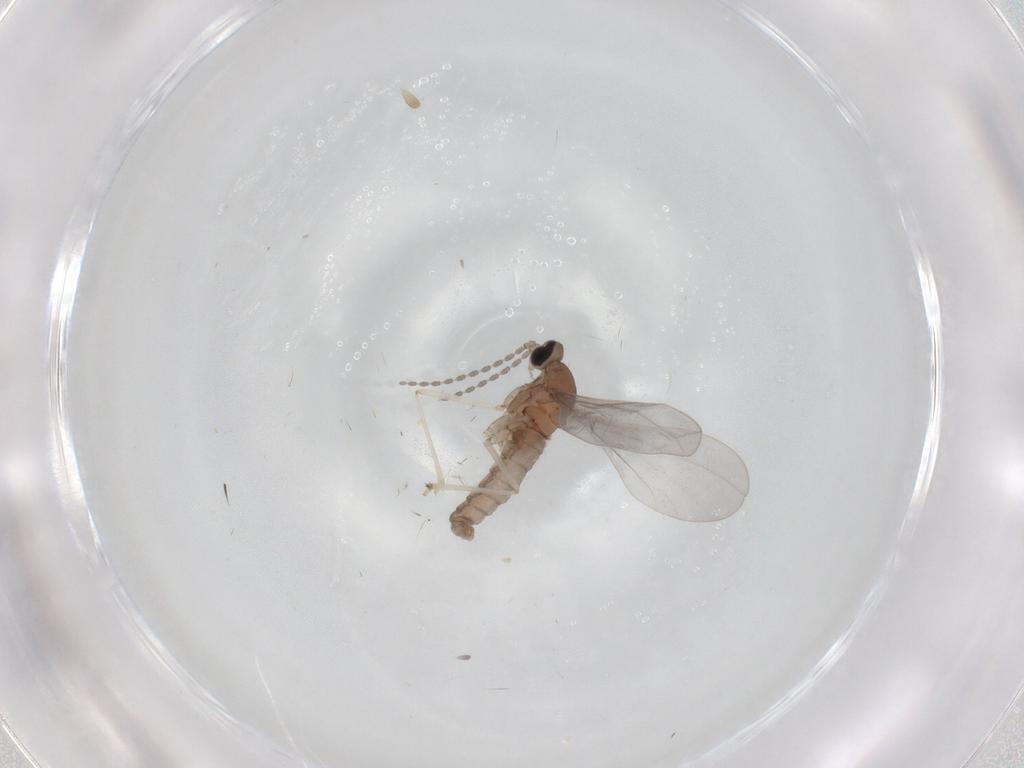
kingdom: Animalia
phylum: Arthropoda
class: Insecta
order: Diptera
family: Cecidomyiidae
